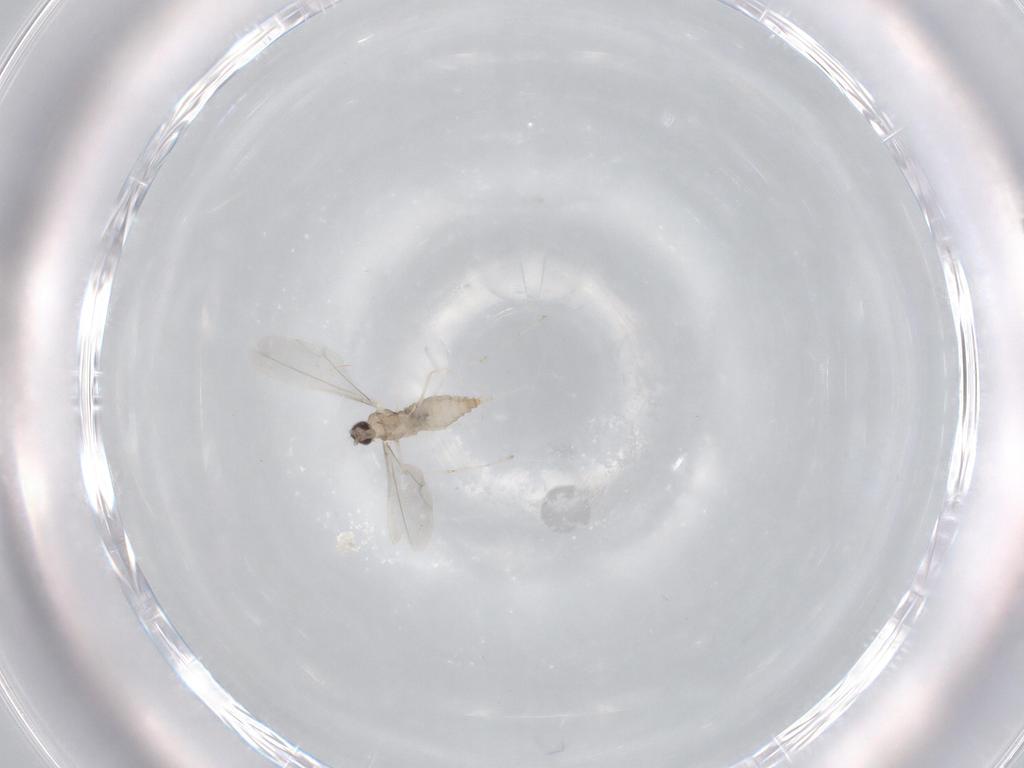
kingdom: Animalia
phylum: Arthropoda
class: Insecta
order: Diptera
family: Cecidomyiidae
